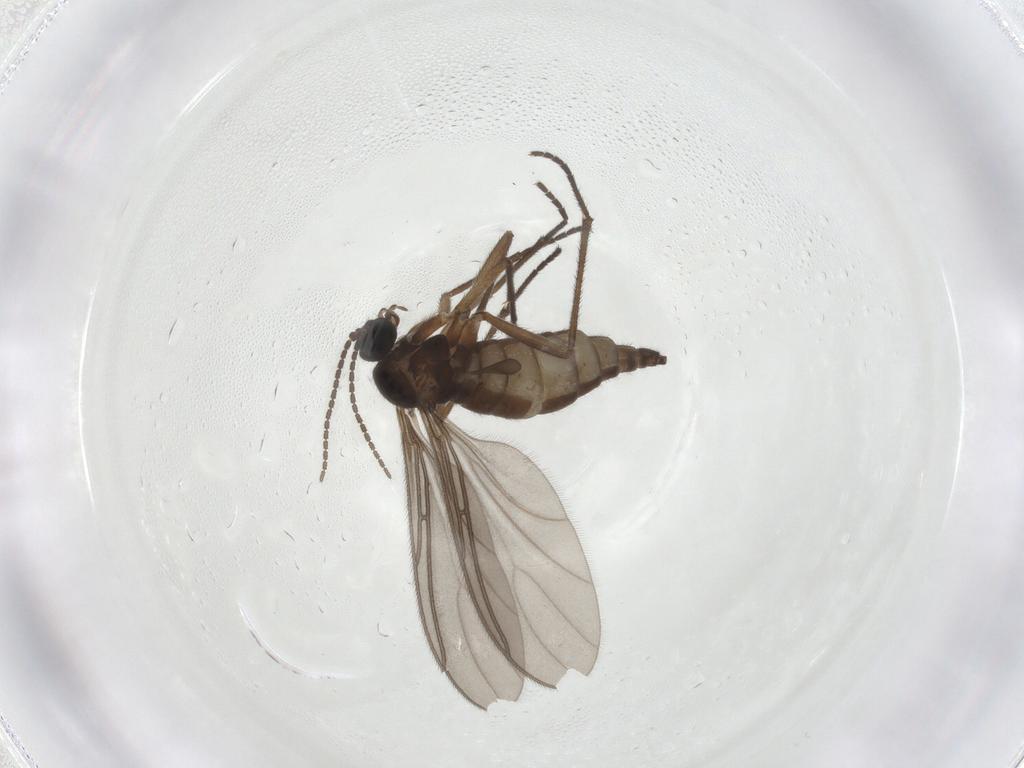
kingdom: Animalia
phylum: Arthropoda
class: Insecta
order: Diptera
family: Sciaridae
